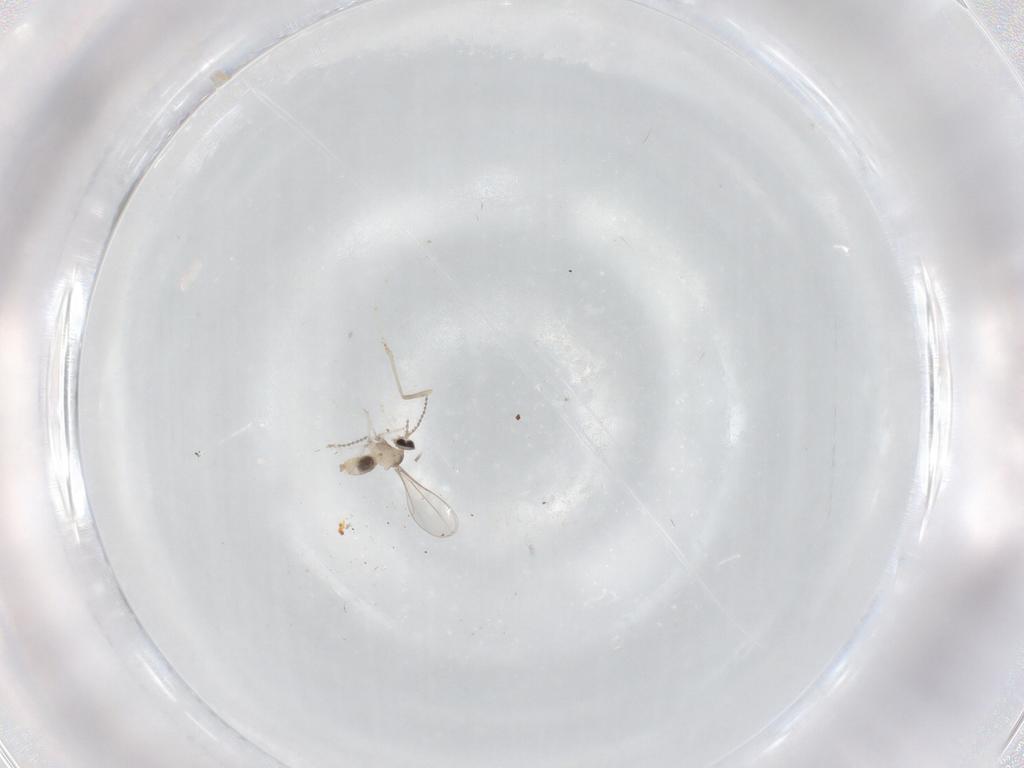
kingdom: Animalia
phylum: Arthropoda
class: Insecta
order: Diptera
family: Cecidomyiidae
